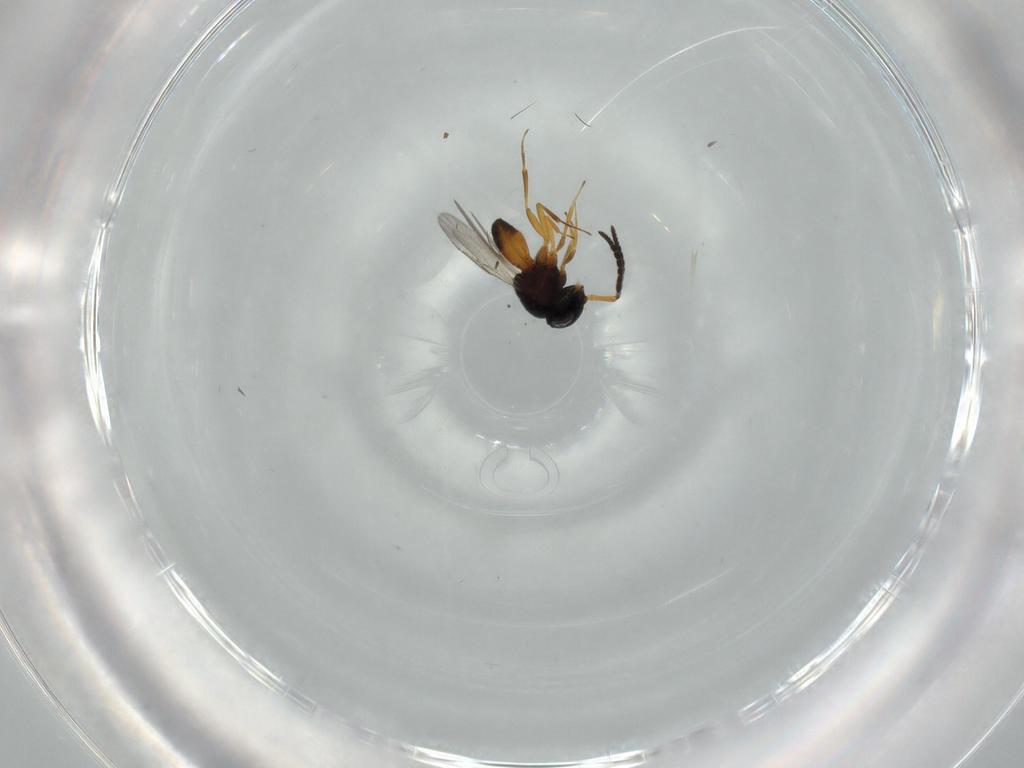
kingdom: Animalia
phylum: Arthropoda
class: Insecta
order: Hymenoptera
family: Scelionidae
